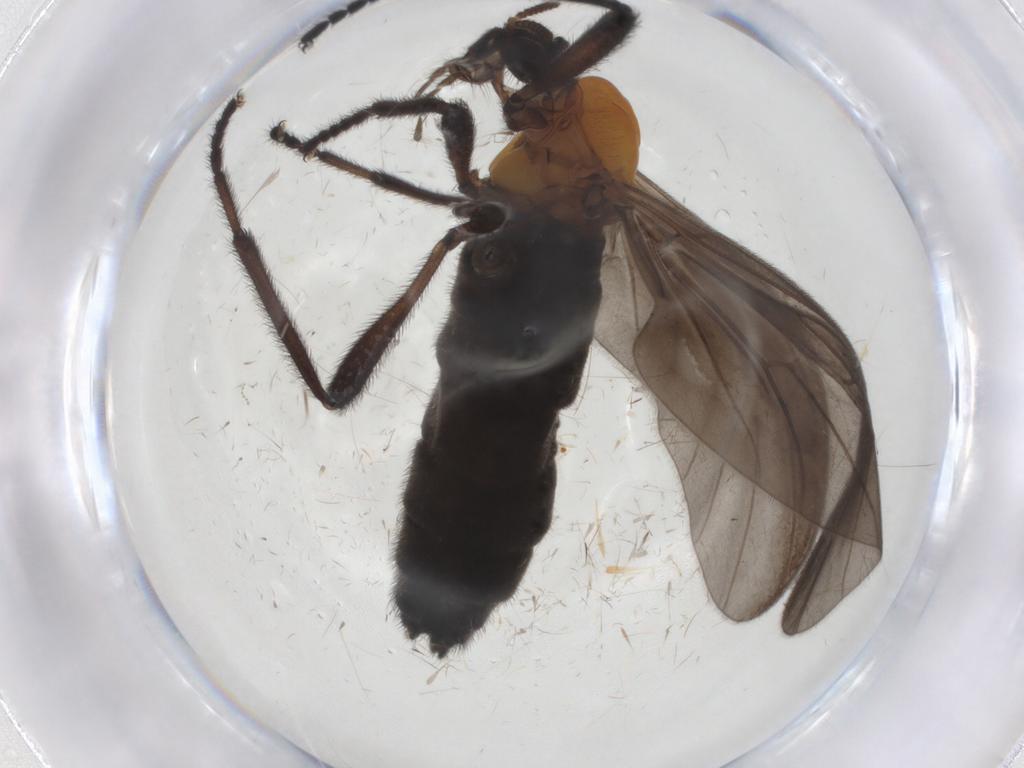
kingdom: Animalia
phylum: Arthropoda
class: Insecta
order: Diptera
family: Bibionidae
